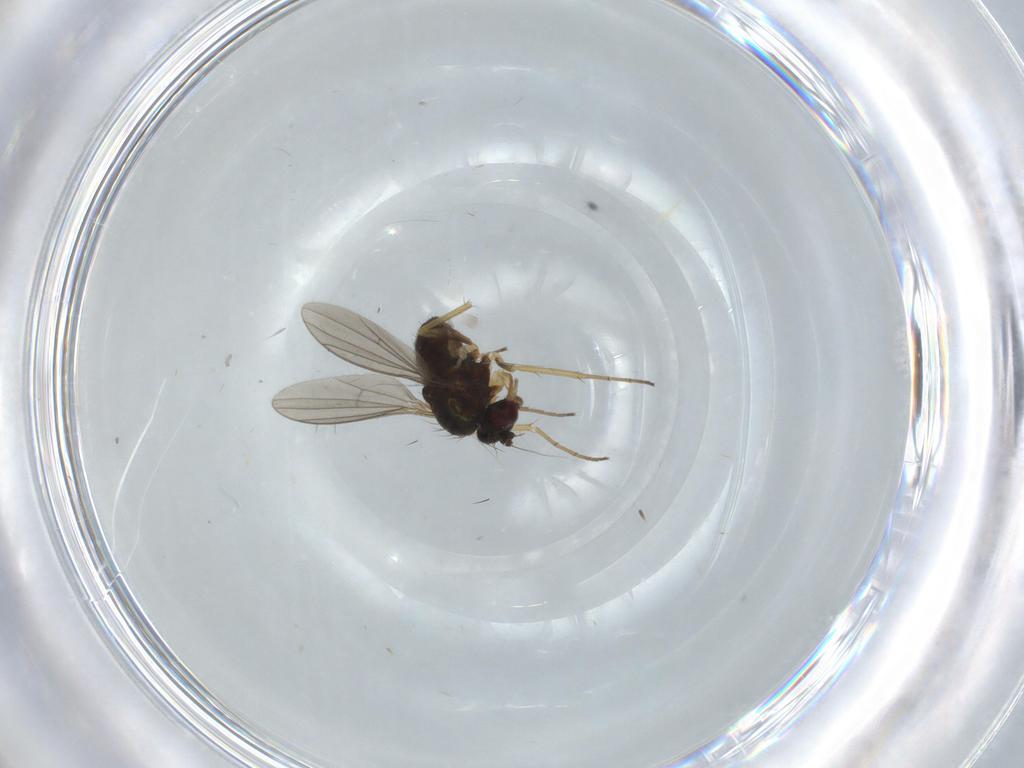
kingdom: Animalia
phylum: Arthropoda
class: Insecta
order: Diptera
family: Dolichopodidae
